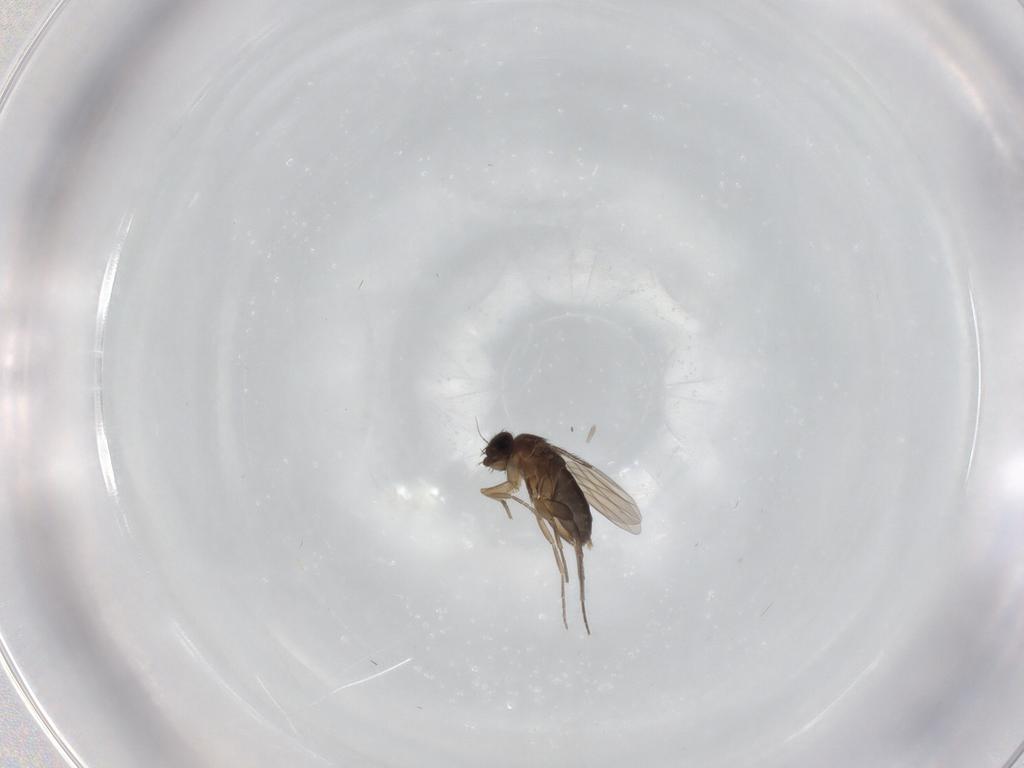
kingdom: Animalia
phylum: Arthropoda
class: Insecta
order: Diptera
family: Phoridae
